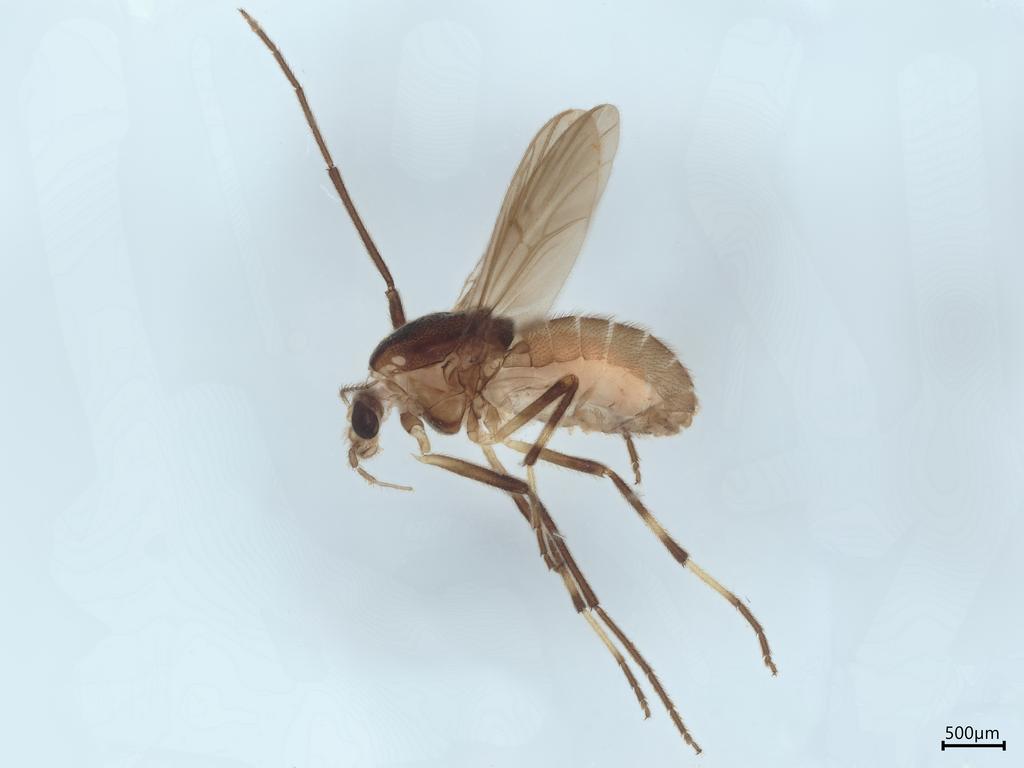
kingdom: Animalia
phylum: Arthropoda
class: Insecta
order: Diptera
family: Chironomidae
